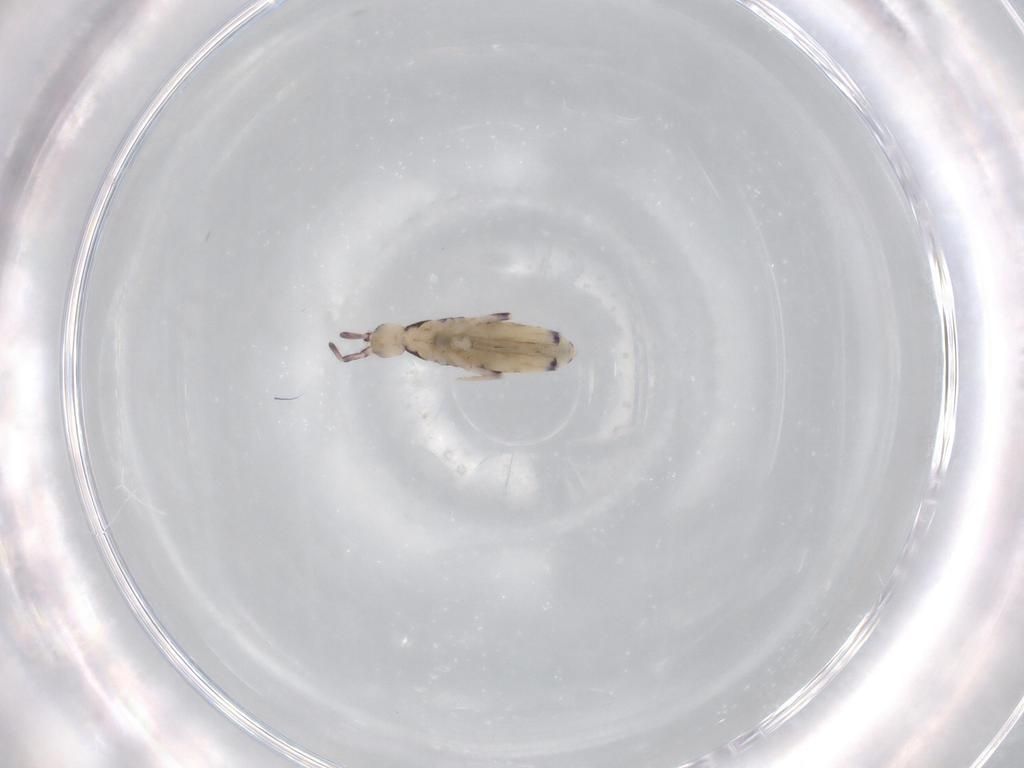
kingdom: Animalia
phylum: Arthropoda
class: Collembola
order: Poduromorpha
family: Hypogastruridae
